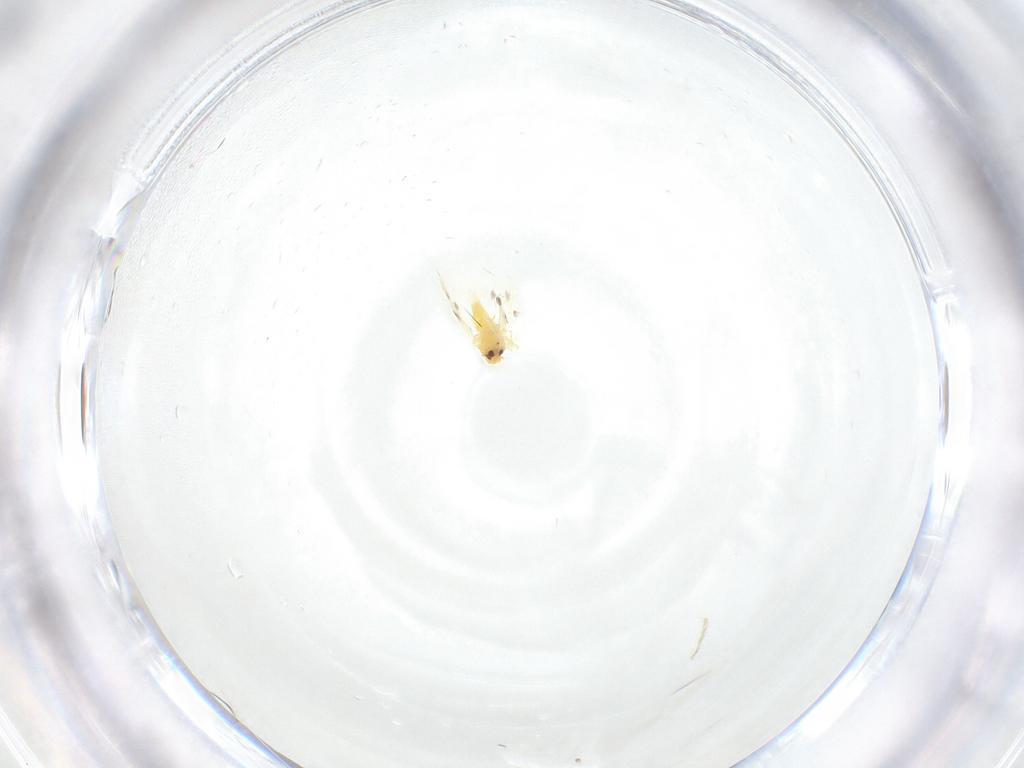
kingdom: Animalia
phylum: Arthropoda
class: Insecta
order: Hemiptera
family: Aleyrodidae
